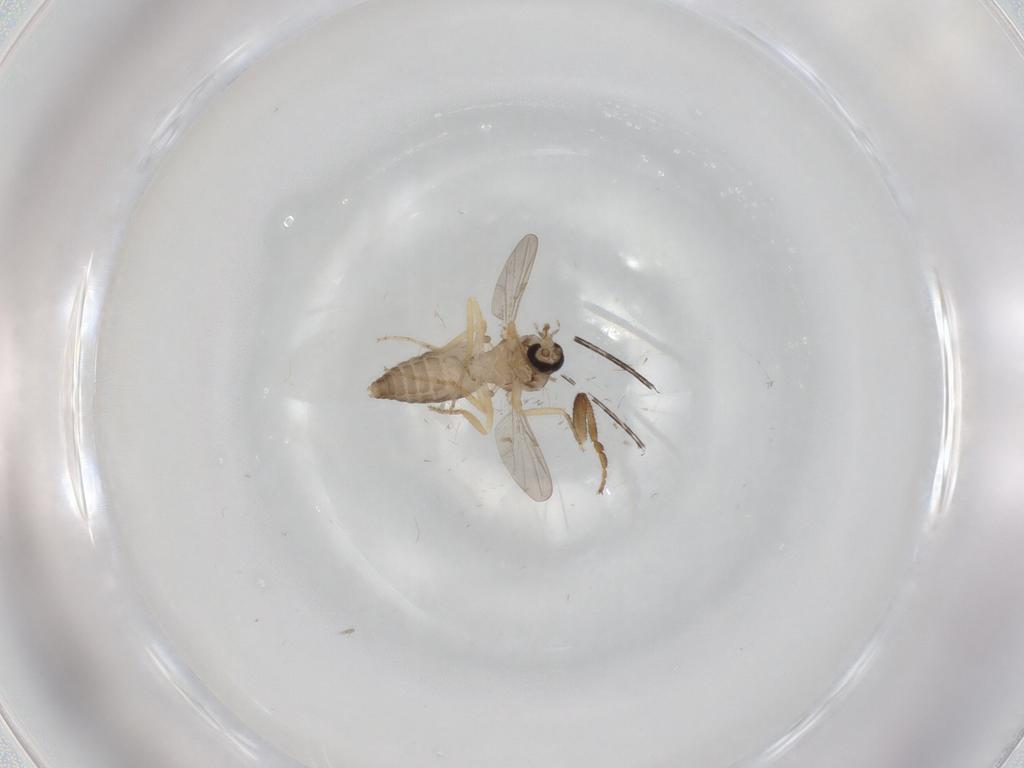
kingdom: Animalia
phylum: Arthropoda
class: Insecta
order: Diptera
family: Ceratopogonidae
